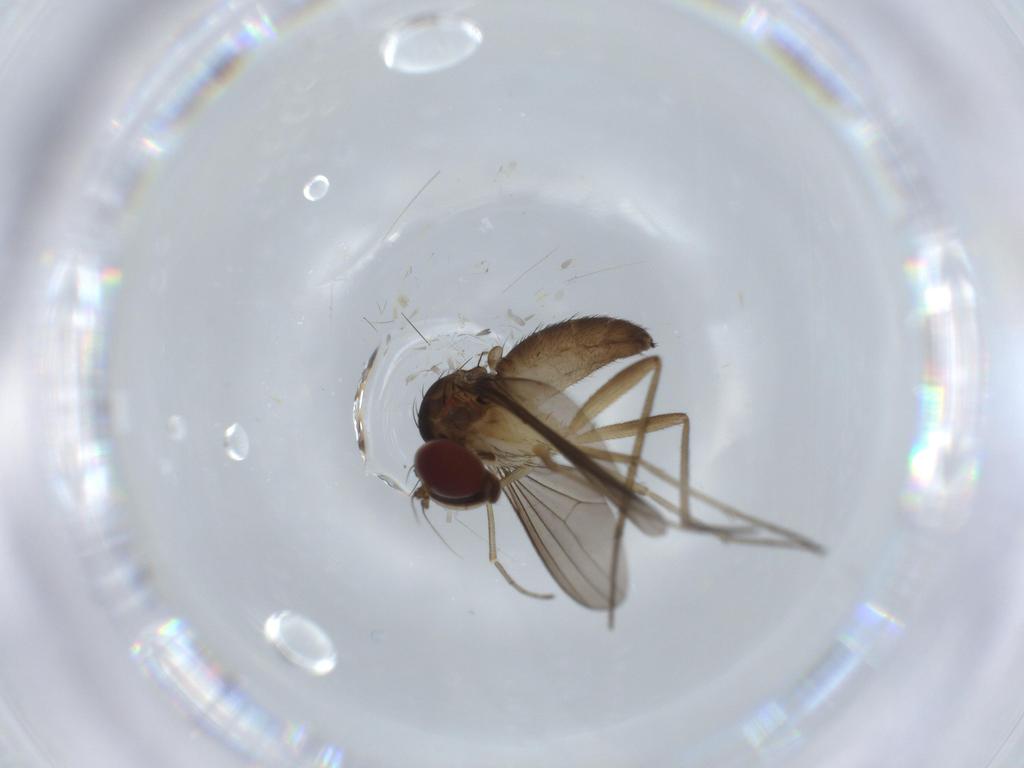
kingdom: Animalia
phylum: Arthropoda
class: Insecta
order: Diptera
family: Dolichopodidae
